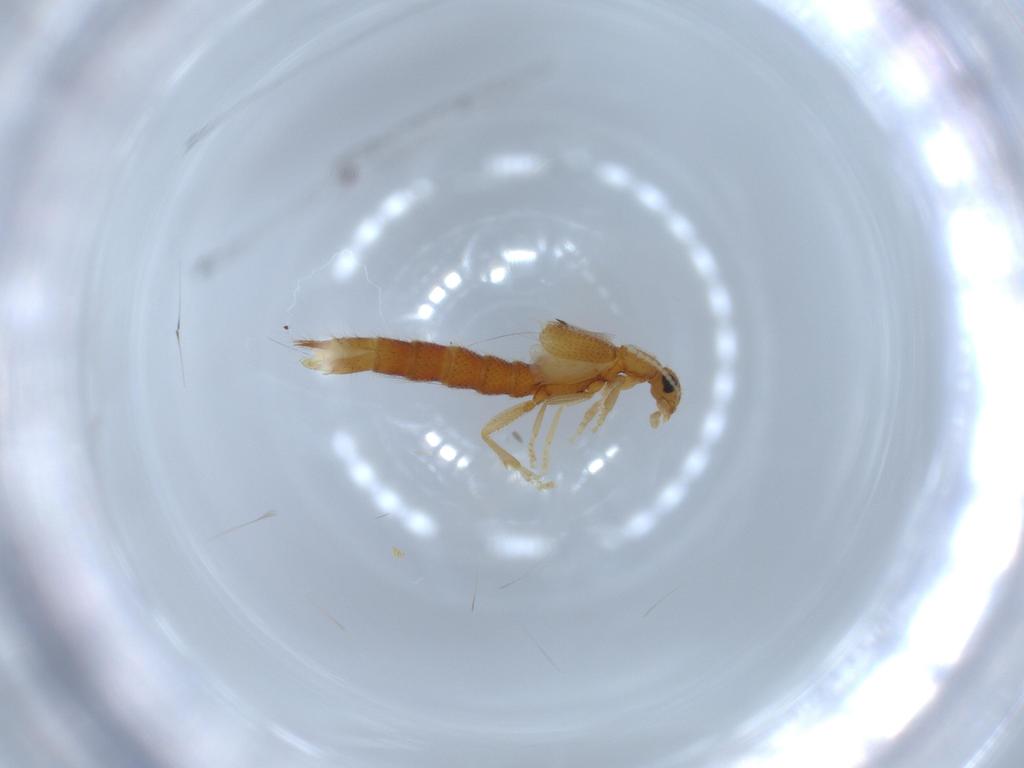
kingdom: Animalia
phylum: Arthropoda
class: Insecta
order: Coleoptera
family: Staphylinidae
